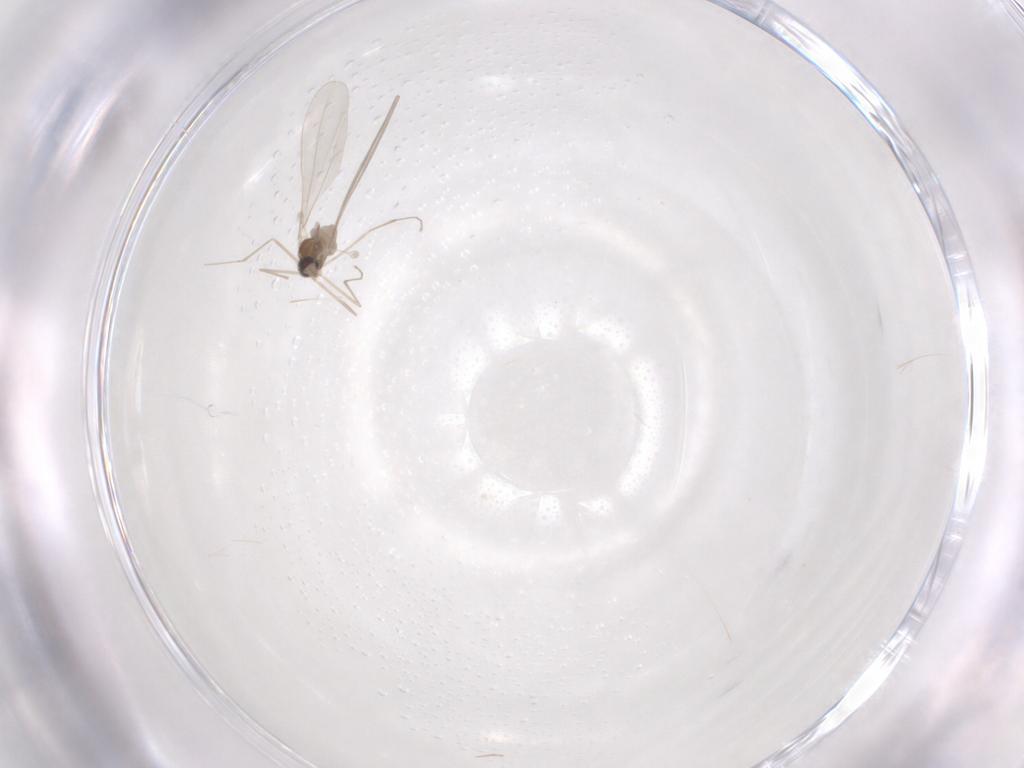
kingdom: Animalia
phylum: Arthropoda
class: Insecta
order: Diptera
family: Cecidomyiidae
